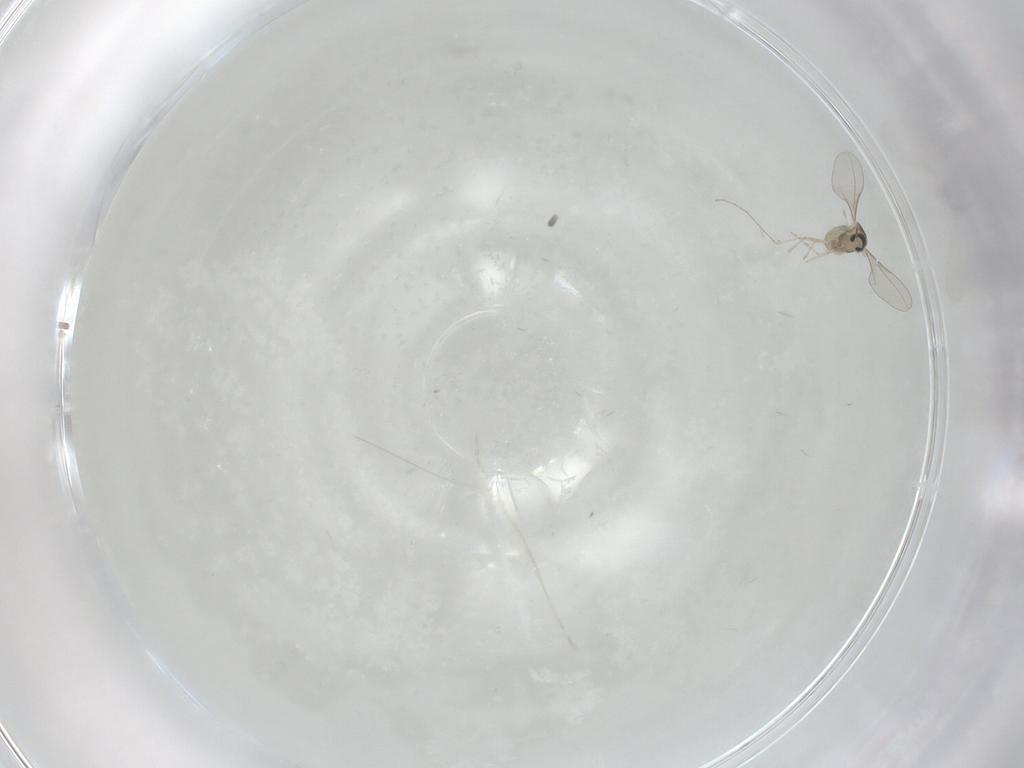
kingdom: Animalia
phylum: Arthropoda
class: Insecta
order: Diptera
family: Cecidomyiidae
